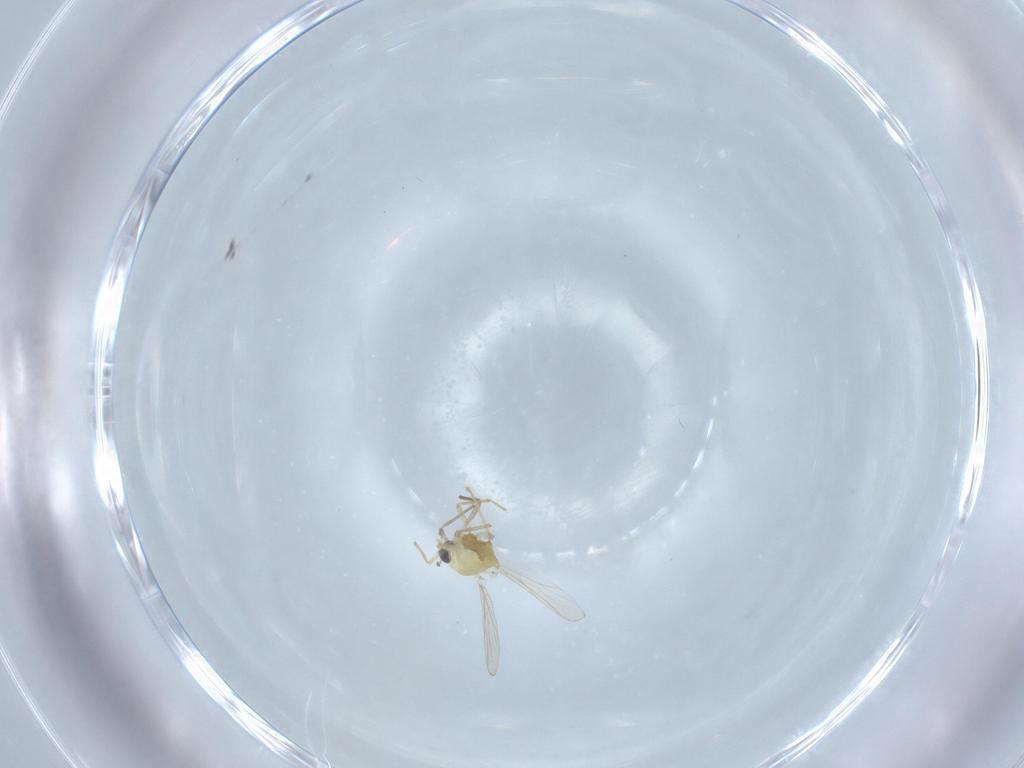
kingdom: Animalia
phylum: Arthropoda
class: Insecta
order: Diptera
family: Chironomidae
